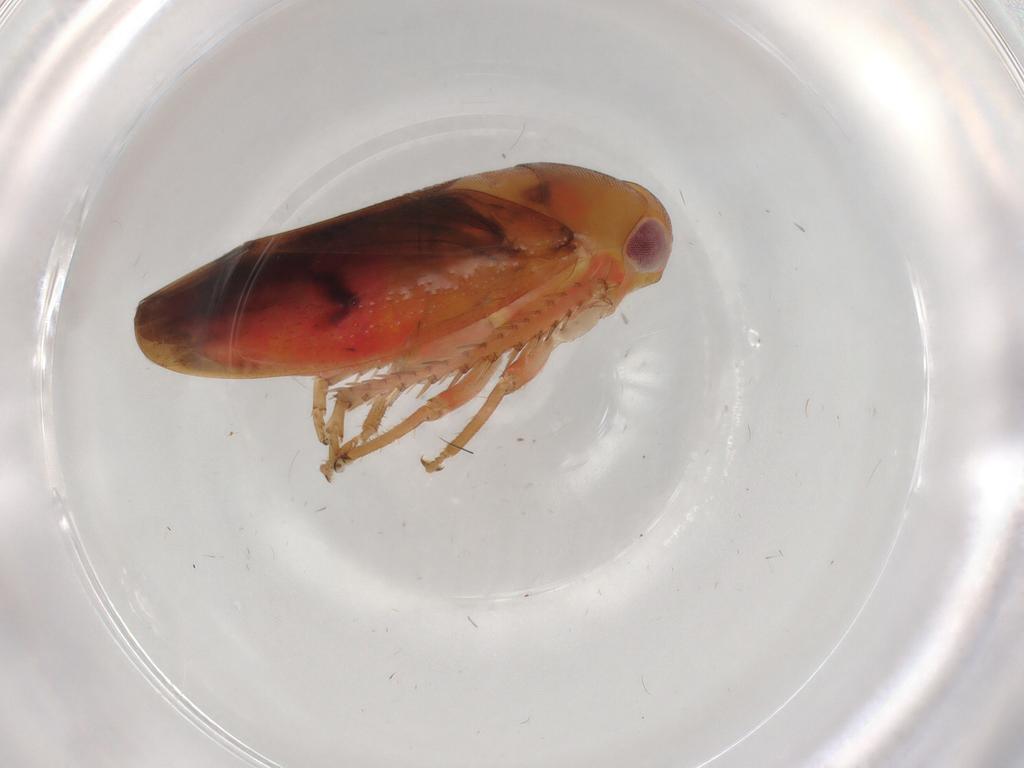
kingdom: Animalia
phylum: Arthropoda
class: Insecta
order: Hemiptera
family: Cicadellidae
